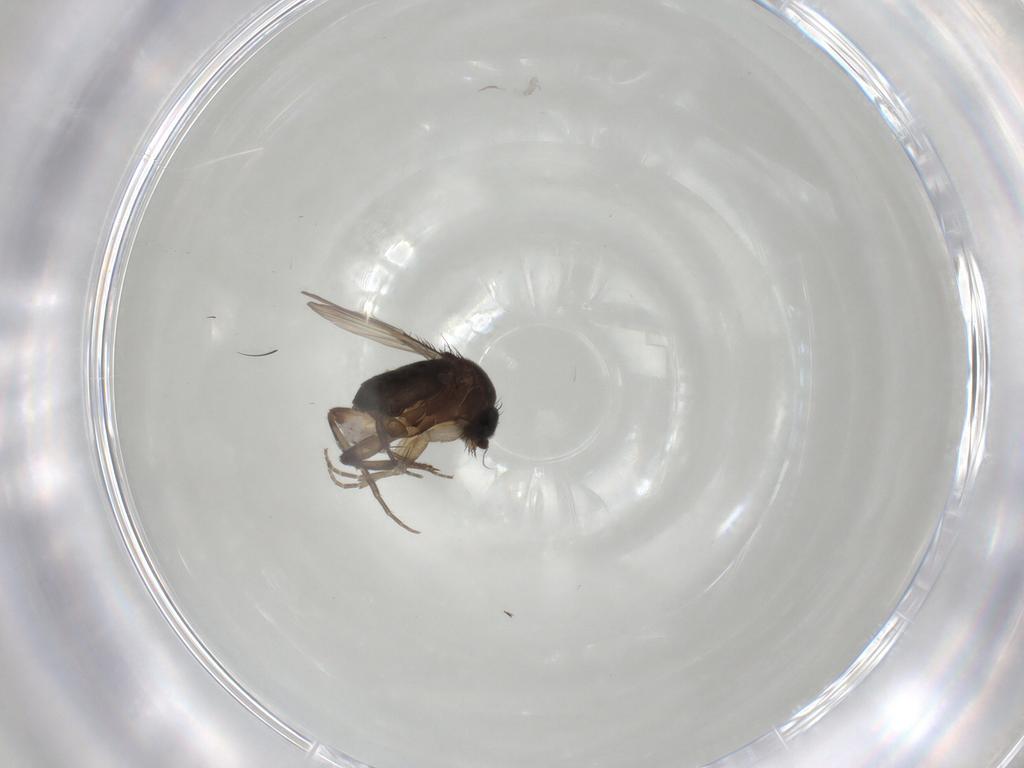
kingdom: Animalia
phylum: Arthropoda
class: Insecta
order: Diptera
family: Phoridae
